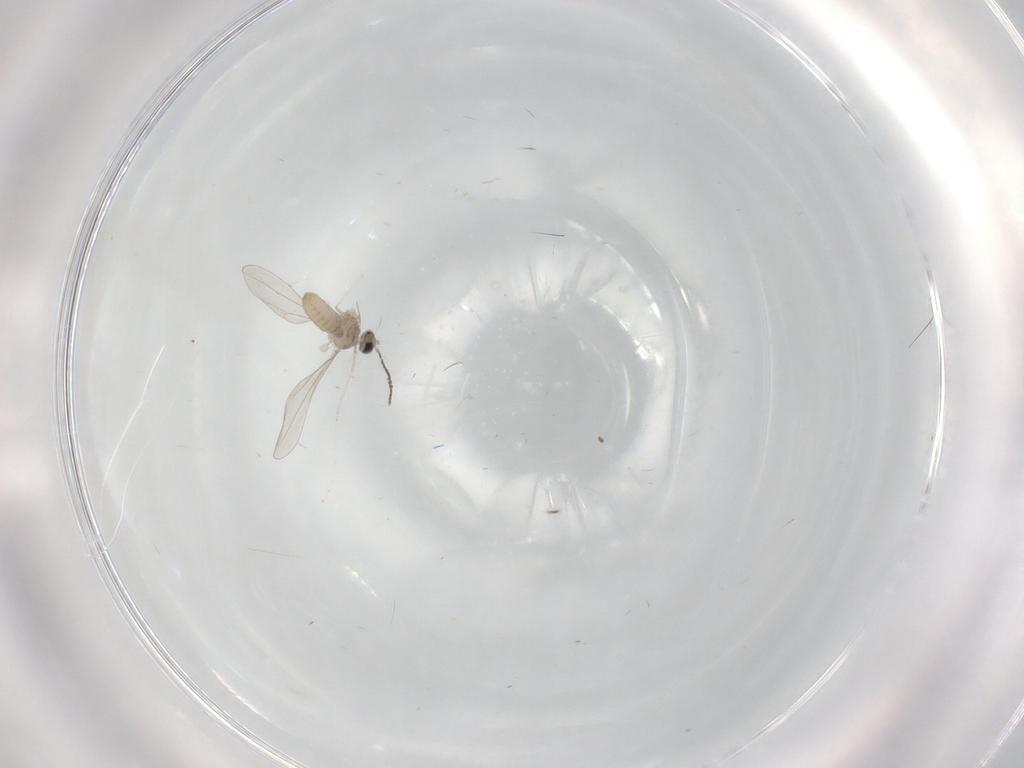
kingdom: Animalia
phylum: Arthropoda
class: Insecta
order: Diptera
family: Cecidomyiidae
